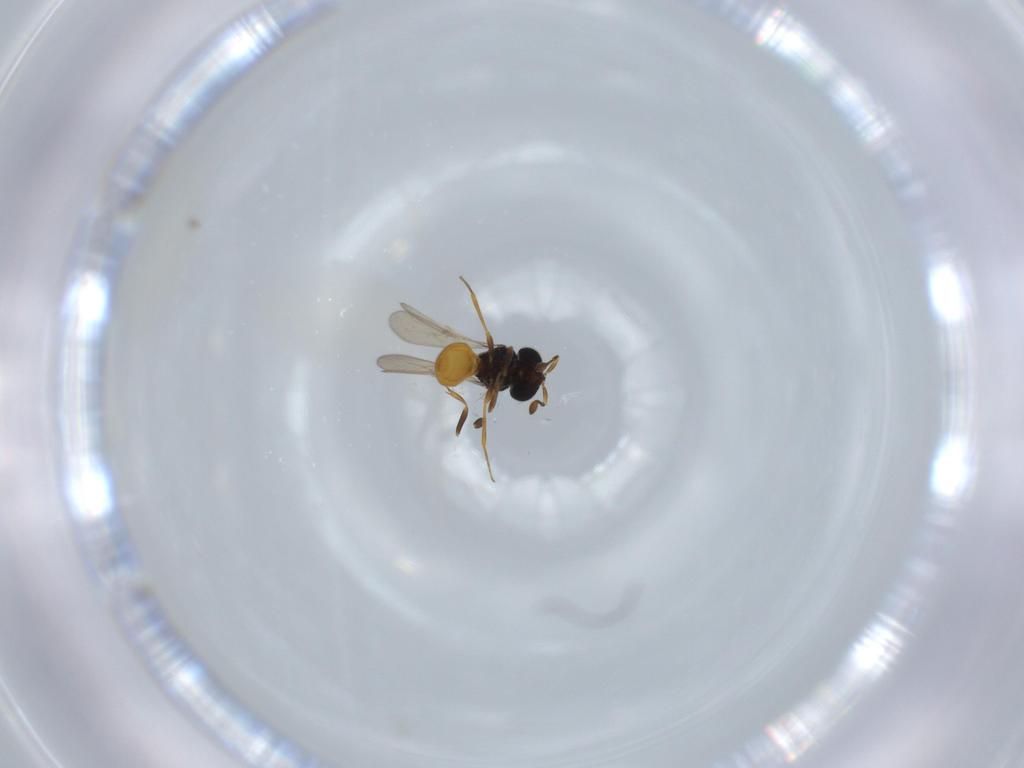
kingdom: Animalia
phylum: Arthropoda
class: Insecta
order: Hymenoptera
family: Scelionidae
